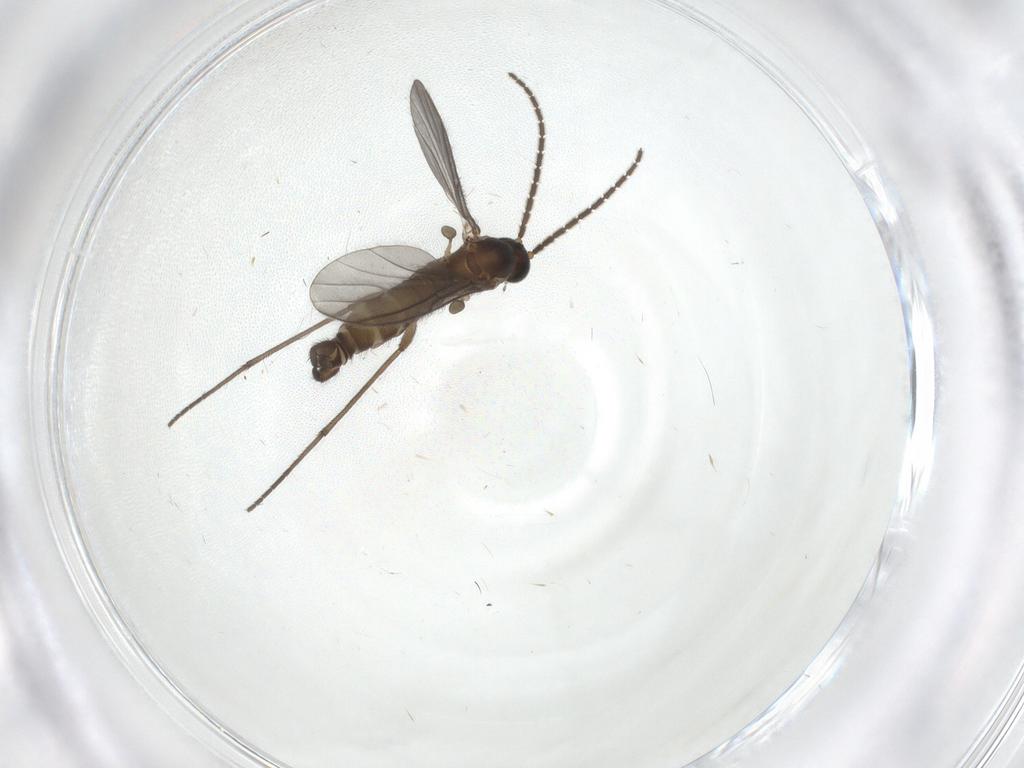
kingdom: Animalia
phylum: Arthropoda
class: Insecta
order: Diptera
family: Sciaridae
